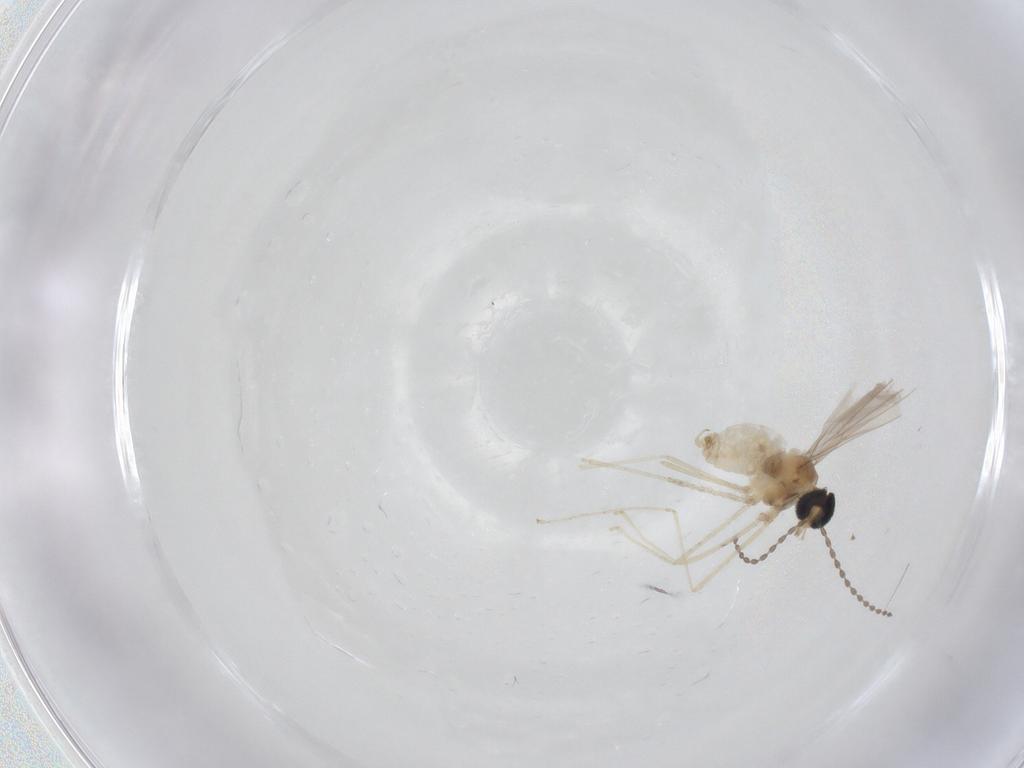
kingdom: Animalia
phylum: Arthropoda
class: Insecta
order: Diptera
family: Cecidomyiidae
